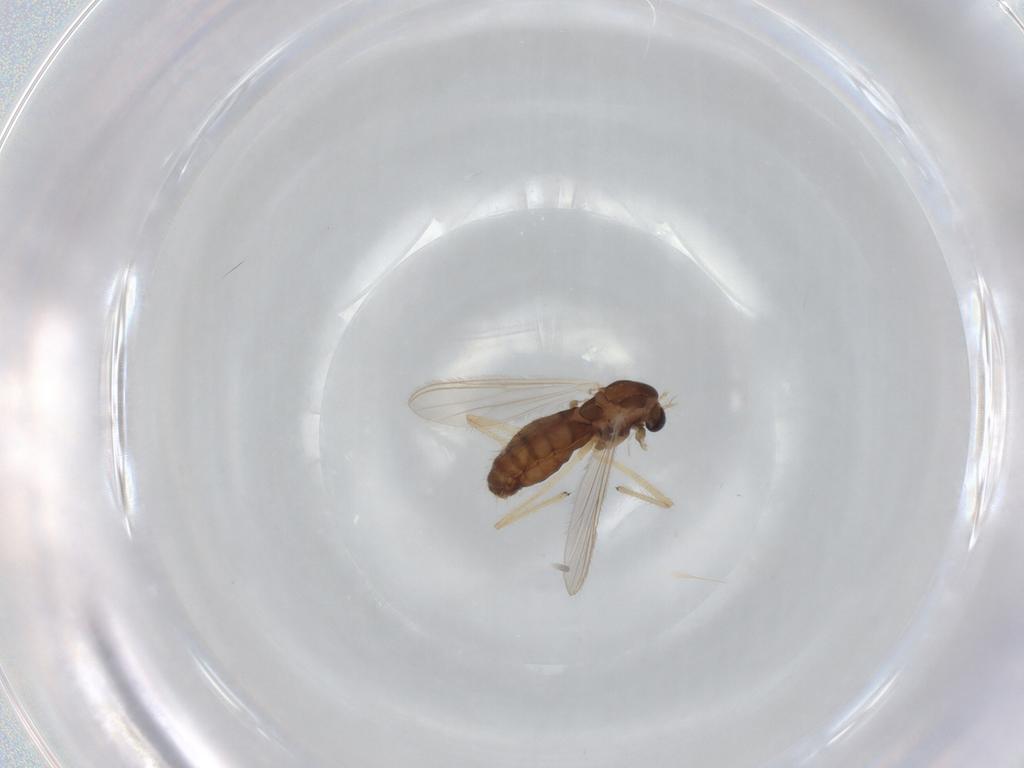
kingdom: Animalia
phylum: Arthropoda
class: Insecta
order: Diptera
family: Chironomidae
